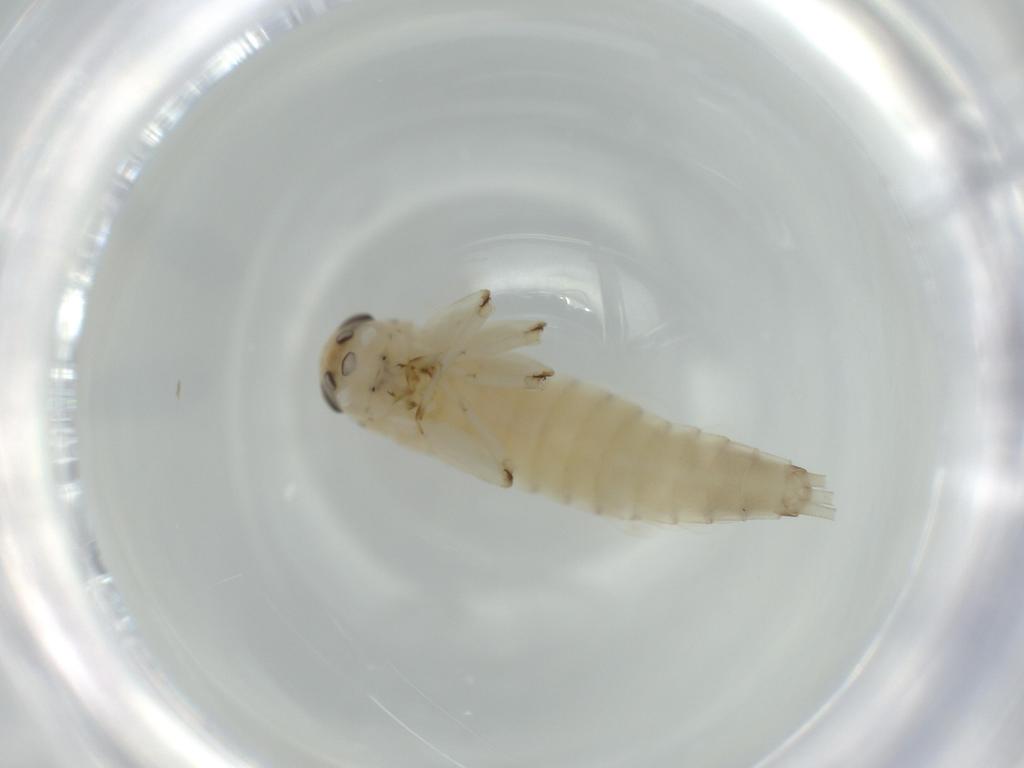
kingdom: Animalia
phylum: Arthropoda
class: Insecta
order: Ephemeroptera
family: Baetidae
